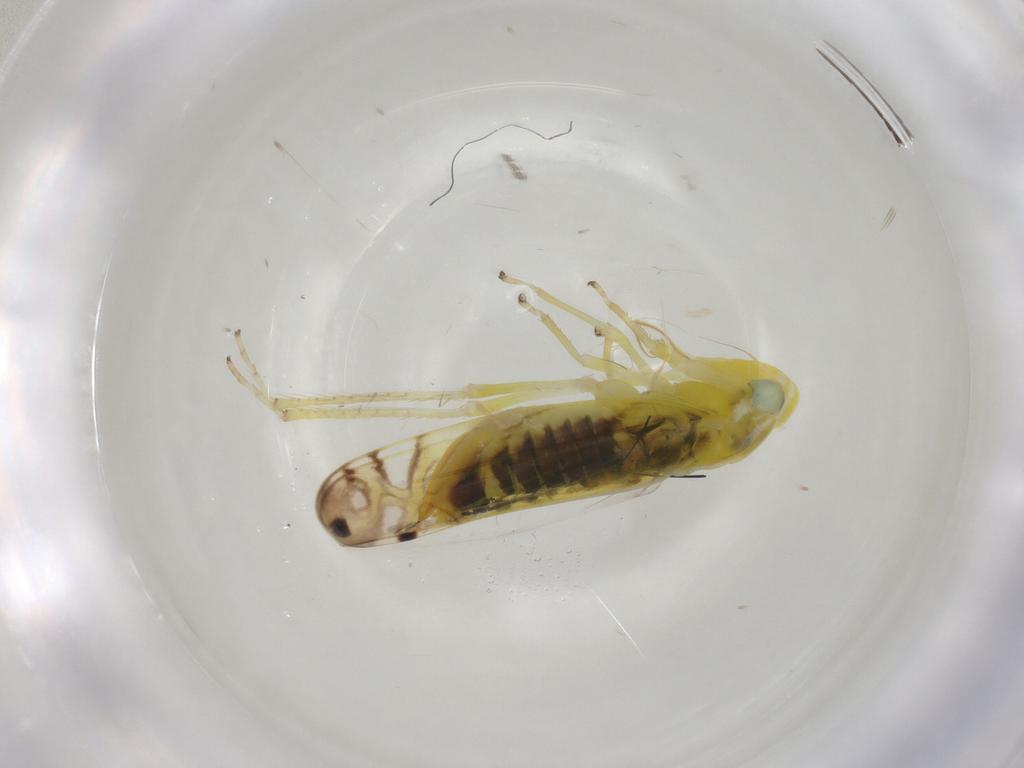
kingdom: Animalia
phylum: Arthropoda
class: Insecta
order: Hemiptera
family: Cicadellidae
